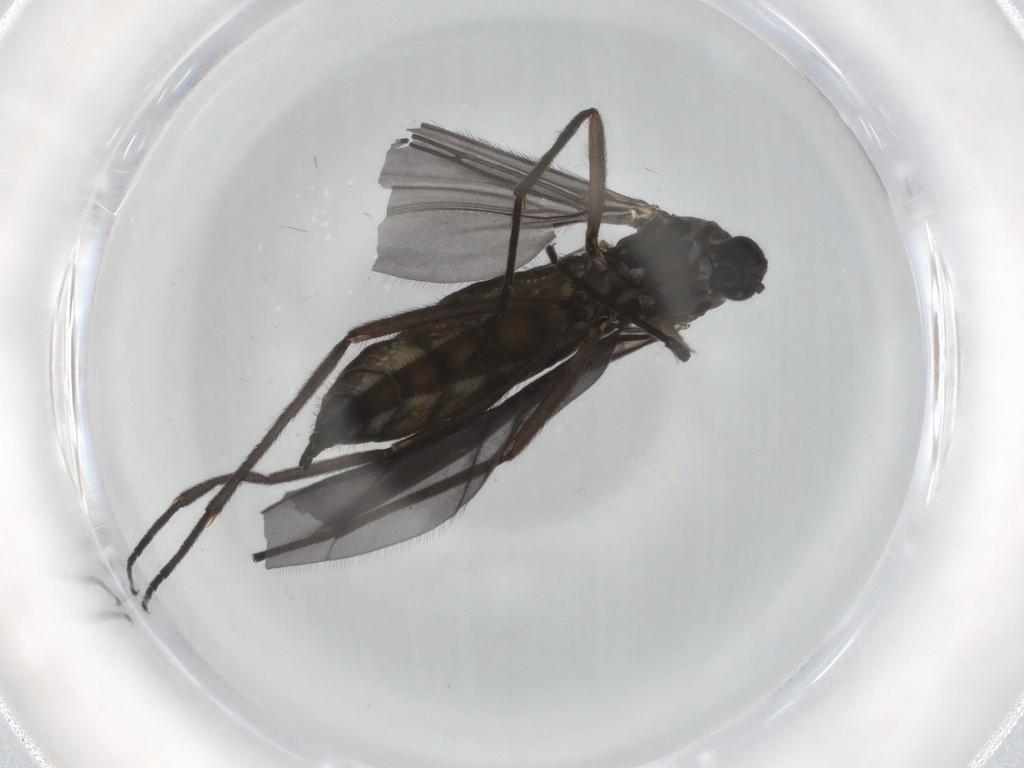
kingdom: Animalia
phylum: Arthropoda
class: Insecta
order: Diptera
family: Sciaridae
